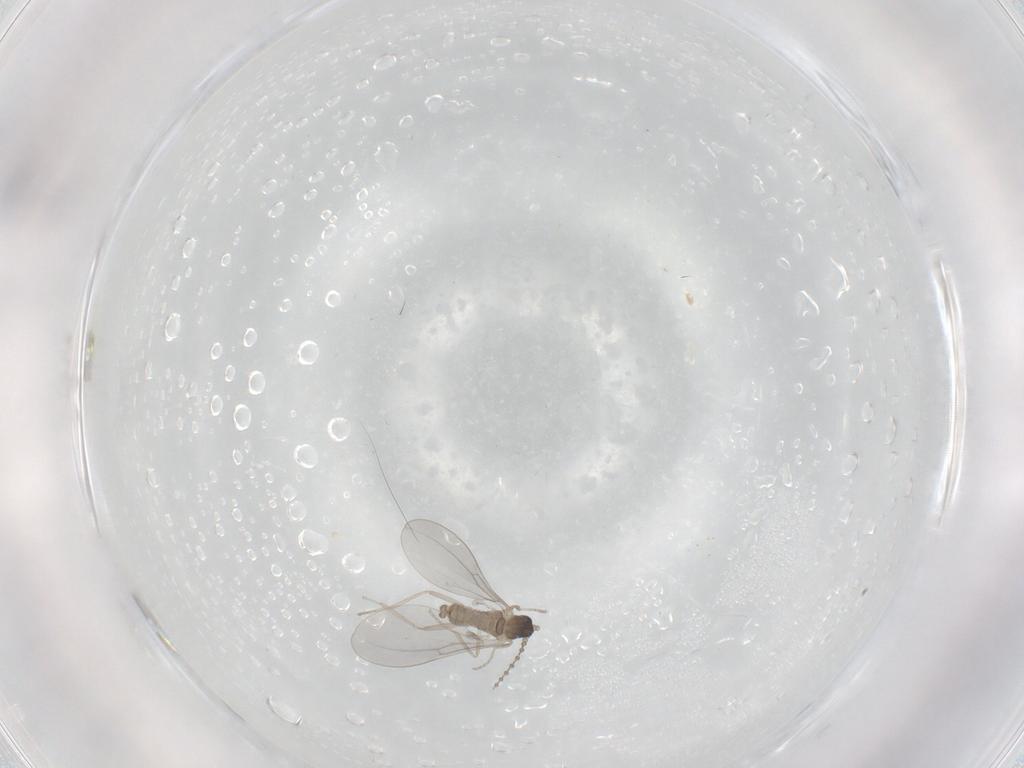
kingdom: Animalia
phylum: Arthropoda
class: Insecta
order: Diptera
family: Cecidomyiidae
